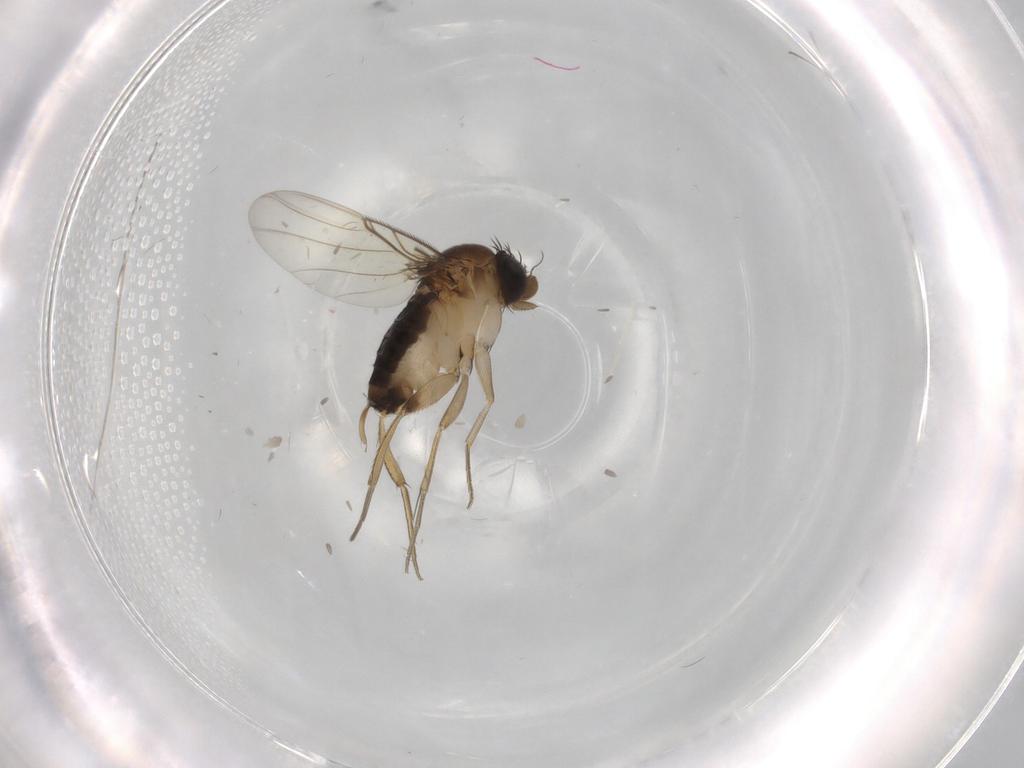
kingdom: Animalia
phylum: Arthropoda
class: Insecta
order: Diptera
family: Phoridae
